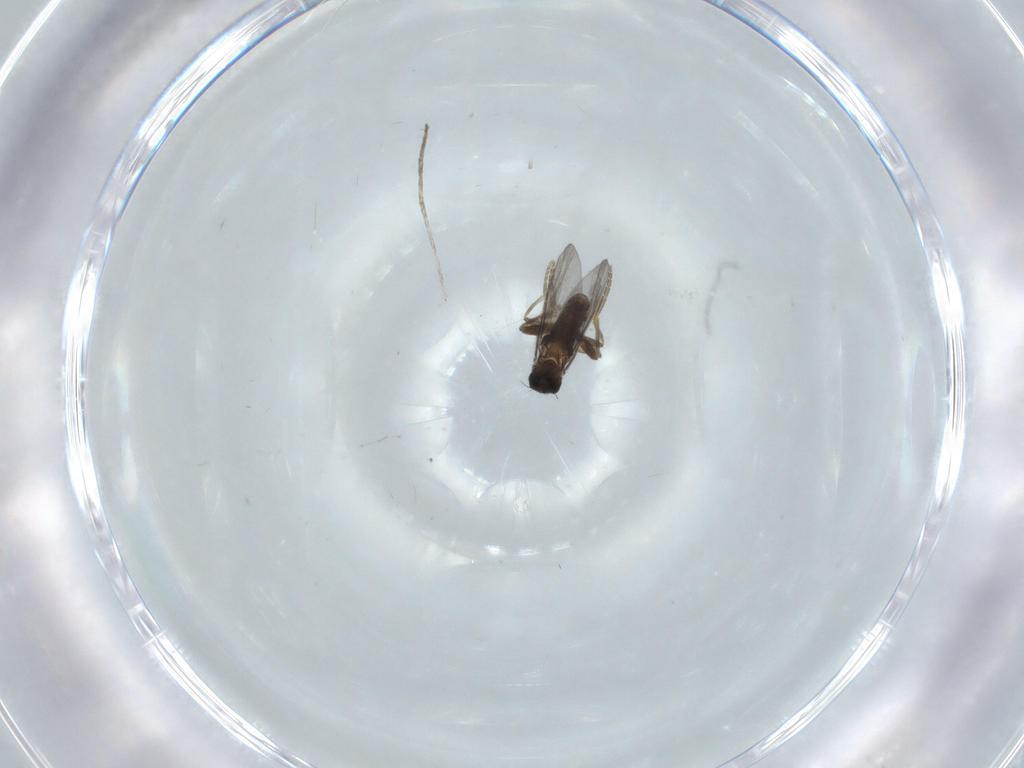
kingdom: Animalia
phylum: Arthropoda
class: Insecta
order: Diptera
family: Cecidomyiidae
